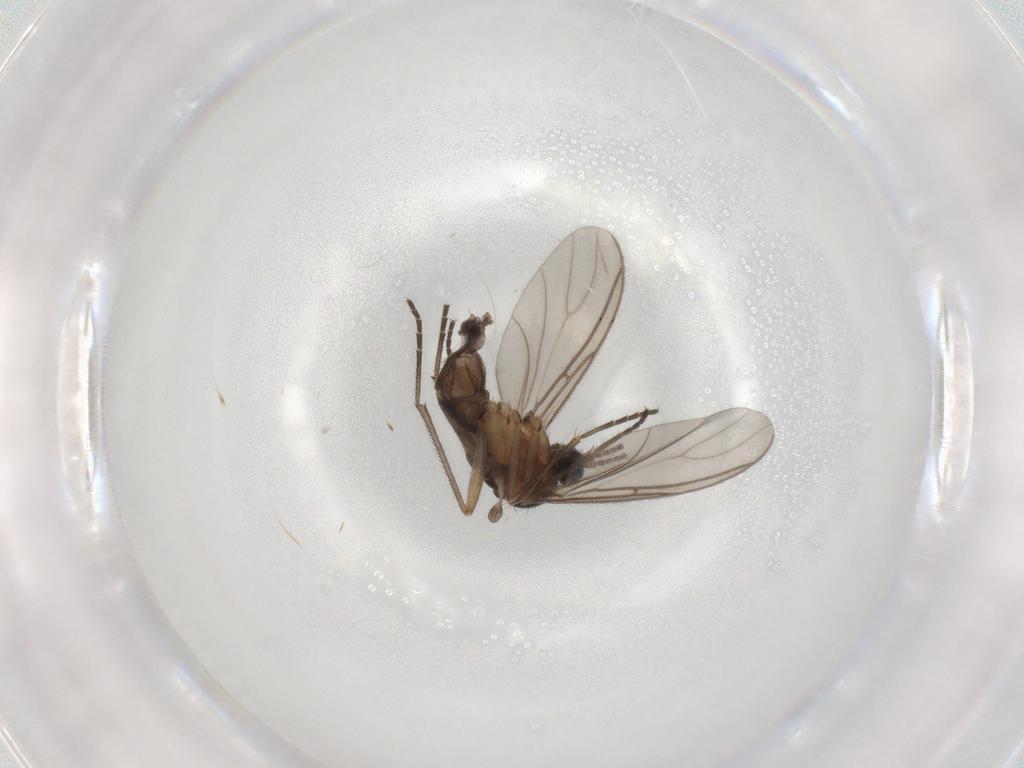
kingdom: Animalia
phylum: Arthropoda
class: Insecta
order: Diptera
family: Sciaridae
